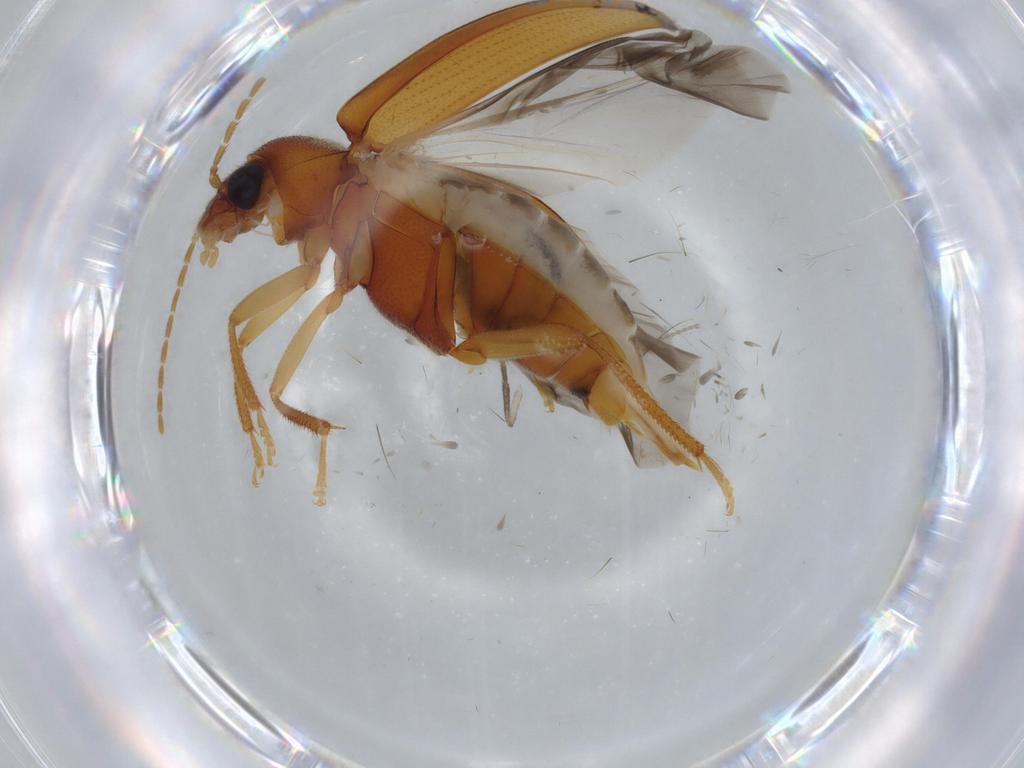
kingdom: Animalia
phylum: Arthropoda
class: Insecta
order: Coleoptera
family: Ptilodactylidae
